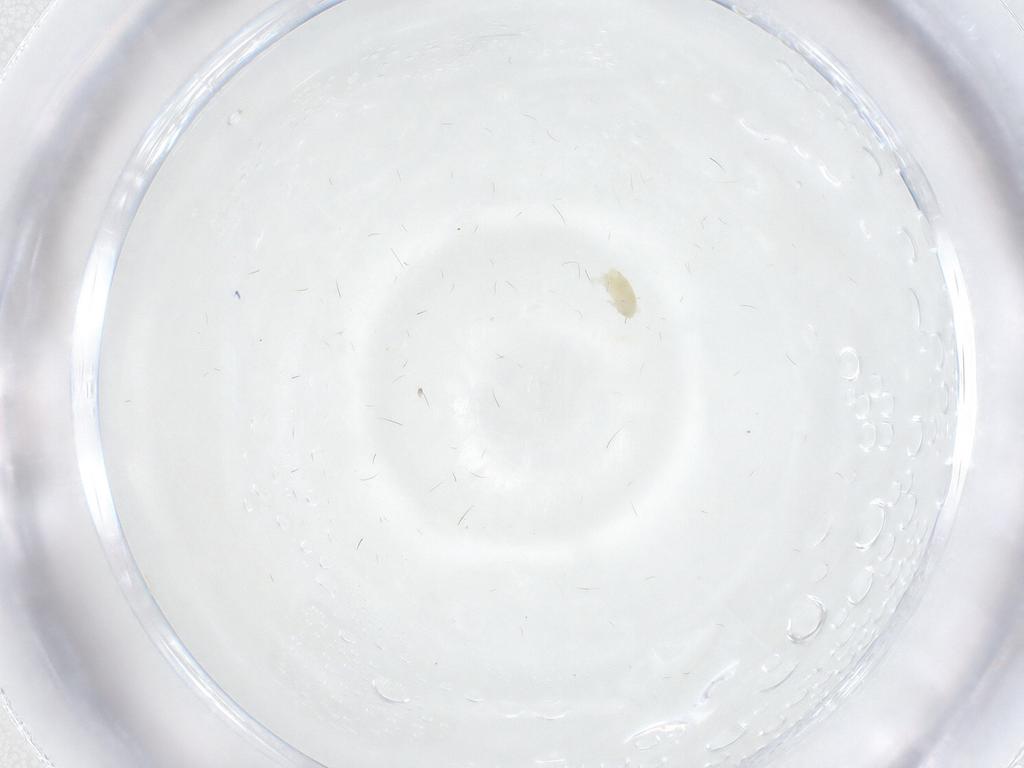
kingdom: Animalia
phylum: Arthropoda
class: Arachnida
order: Trombidiformes
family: Eupodidae
